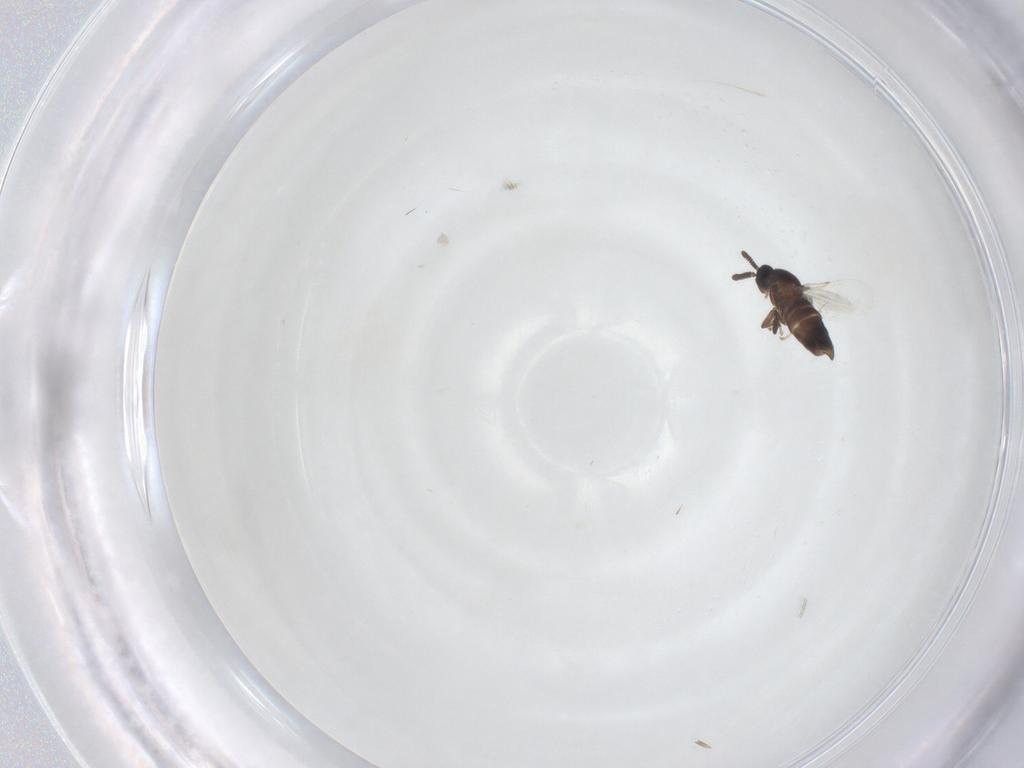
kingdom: Animalia
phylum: Arthropoda
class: Insecta
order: Diptera
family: Scatopsidae
